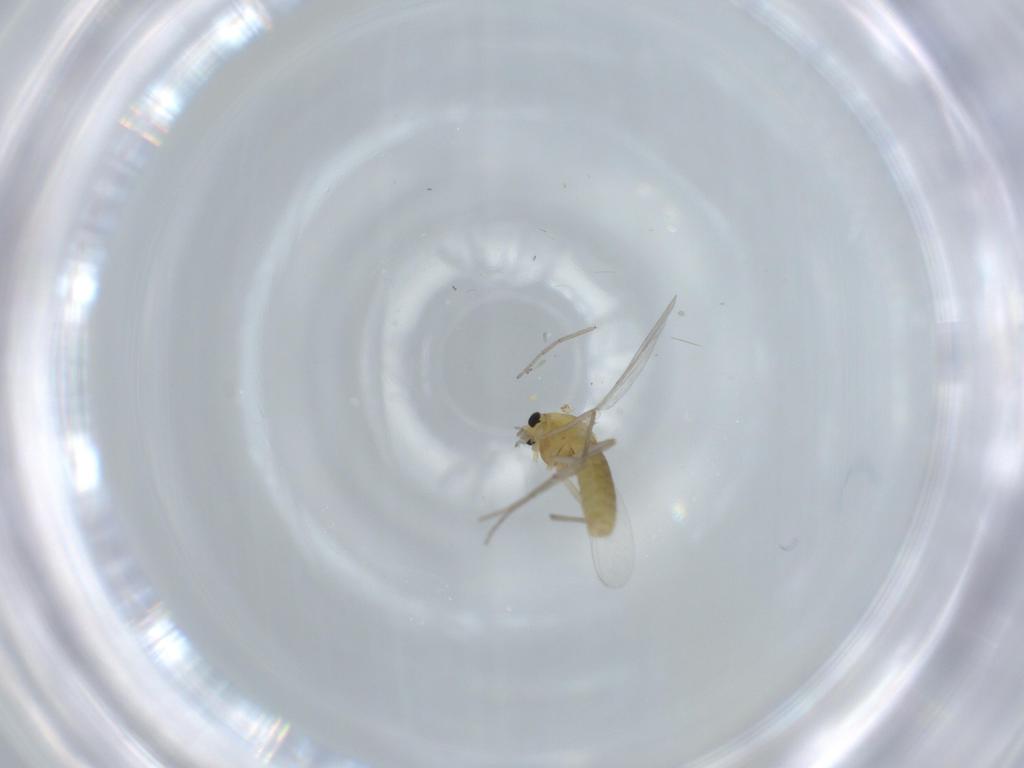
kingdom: Animalia
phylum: Arthropoda
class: Insecta
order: Diptera
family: Chironomidae
